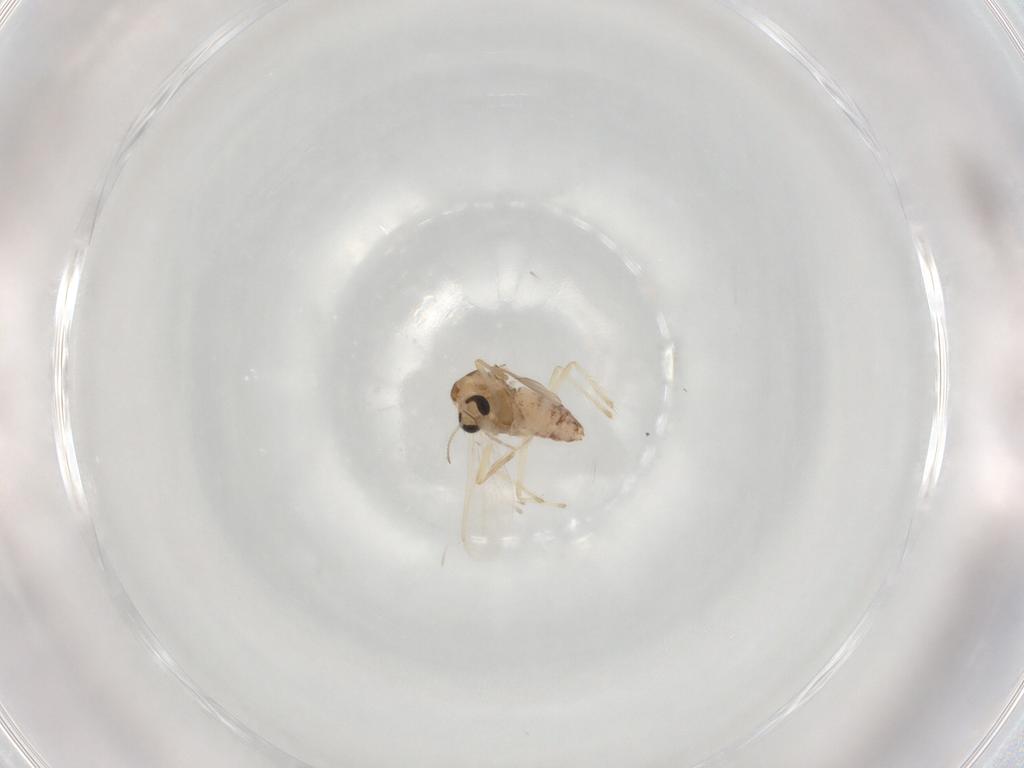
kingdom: Animalia
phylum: Arthropoda
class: Insecta
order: Diptera
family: Chironomidae
